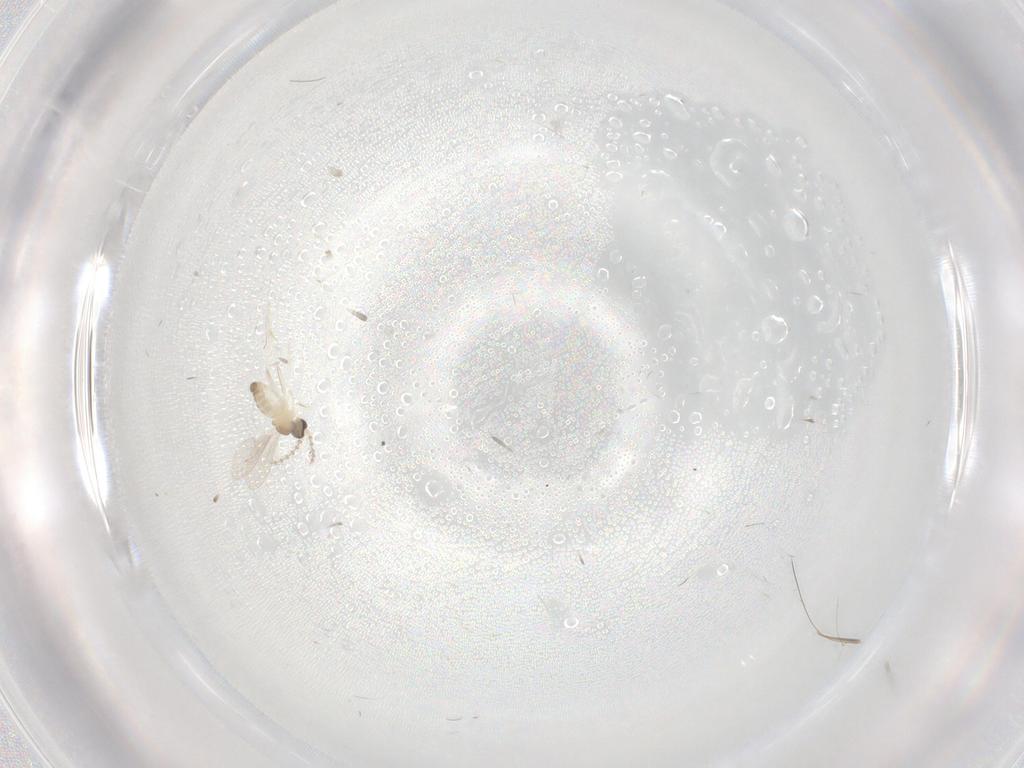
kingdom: Animalia
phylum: Arthropoda
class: Insecta
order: Diptera
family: Cecidomyiidae
